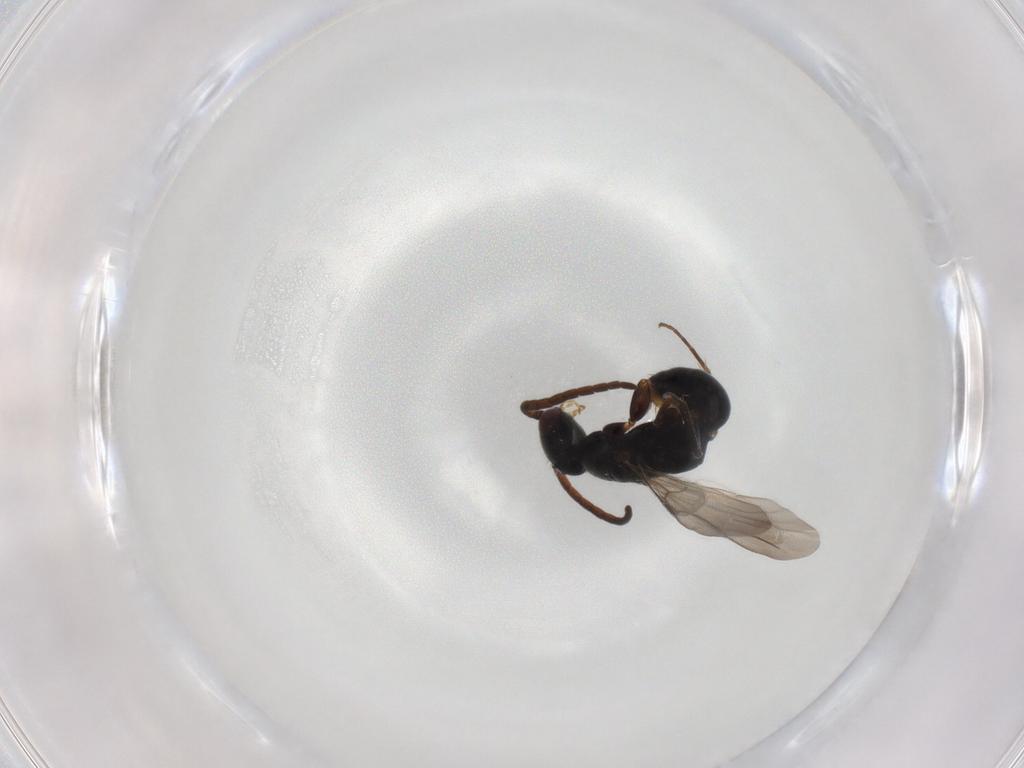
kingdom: Animalia
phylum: Arthropoda
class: Insecta
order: Hymenoptera
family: Bethylidae
